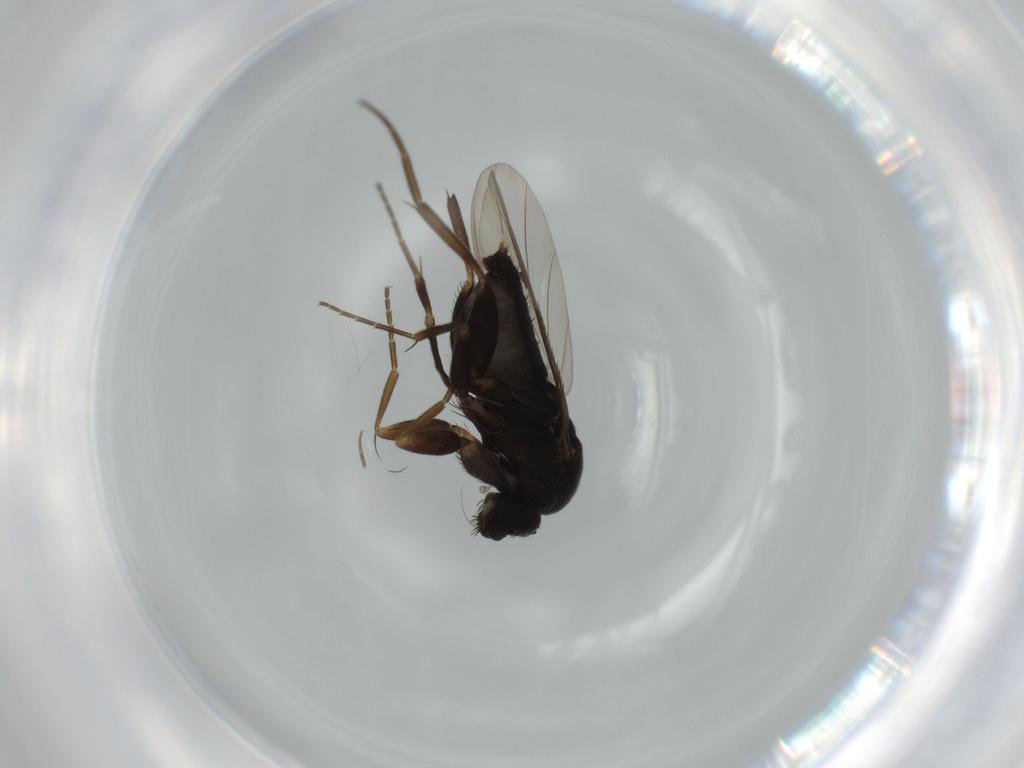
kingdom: Animalia
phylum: Arthropoda
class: Insecta
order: Diptera
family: Phoridae
